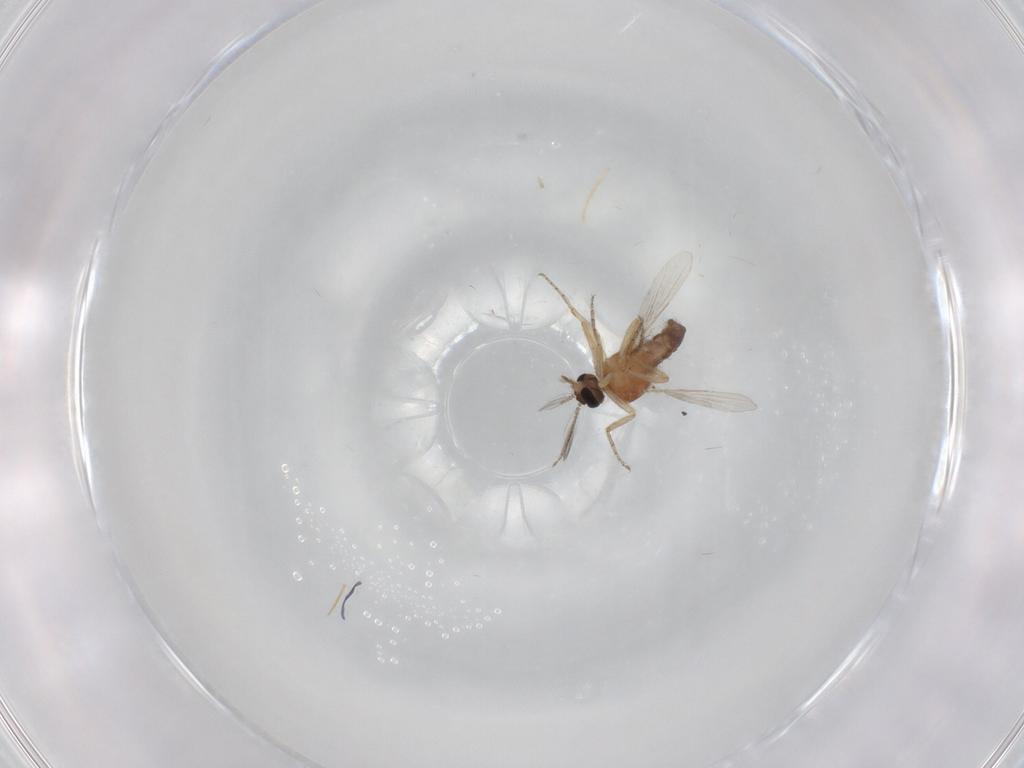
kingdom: Animalia
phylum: Arthropoda
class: Insecta
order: Diptera
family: Ceratopogonidae
